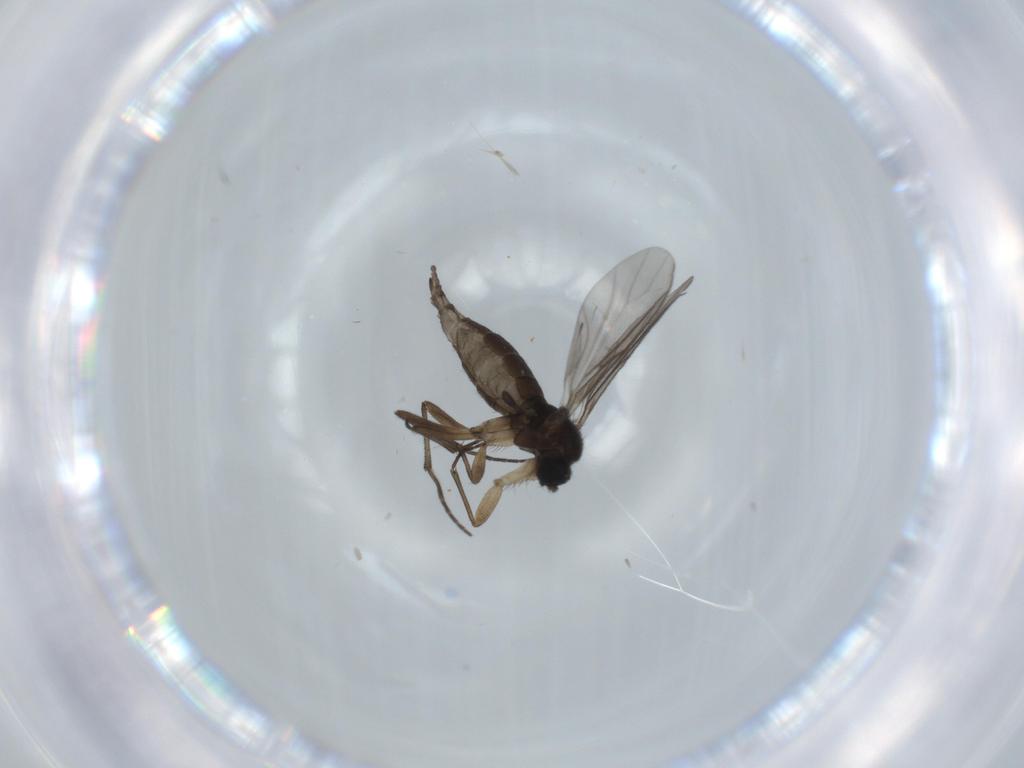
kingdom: Animalia
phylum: Arthropoda
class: Insecta
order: Diptera
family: Sciaridae
